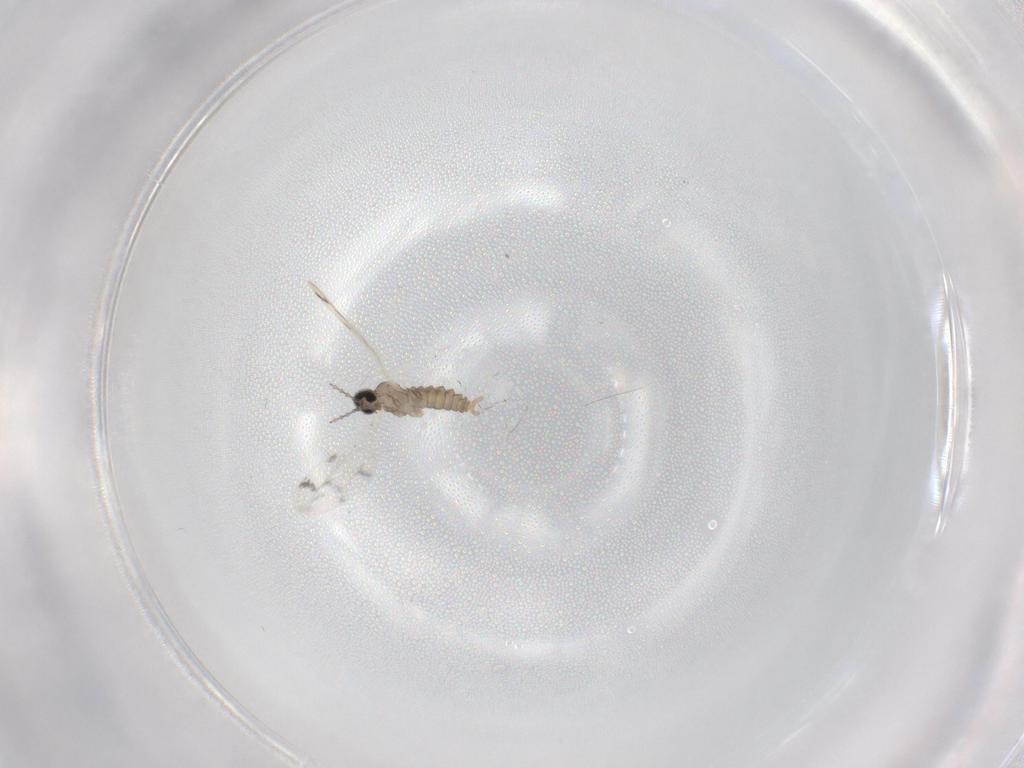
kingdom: Animalia
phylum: Arthropoda
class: Insecta
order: Diptera
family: Cecidomyiidae
